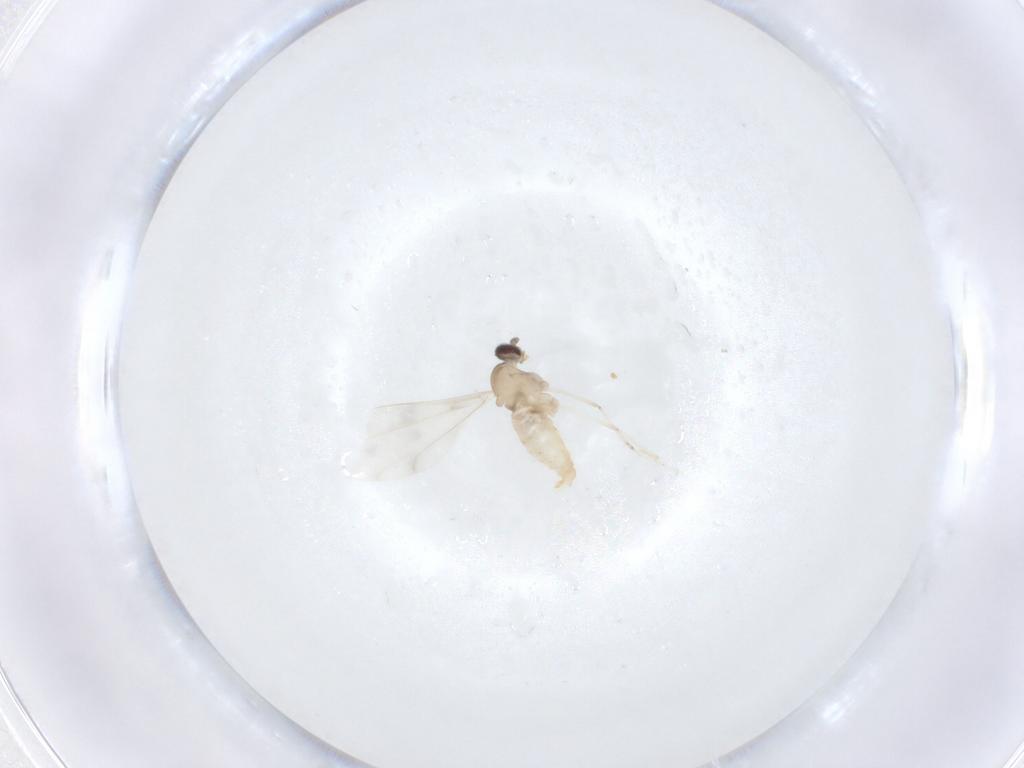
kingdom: Animalia
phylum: Arthropoda
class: Insecta
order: Diptera
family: Cecidomyiidae
